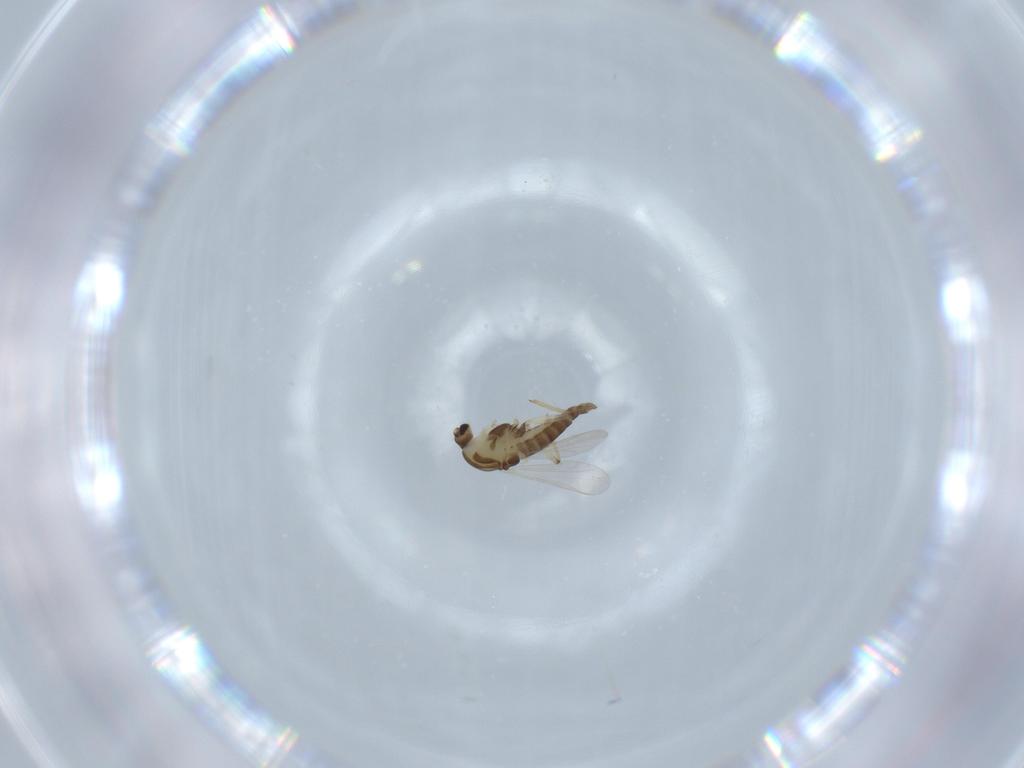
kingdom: Animalia
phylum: Arthropoda
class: Insecta
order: Diptera
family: Chironomidae
